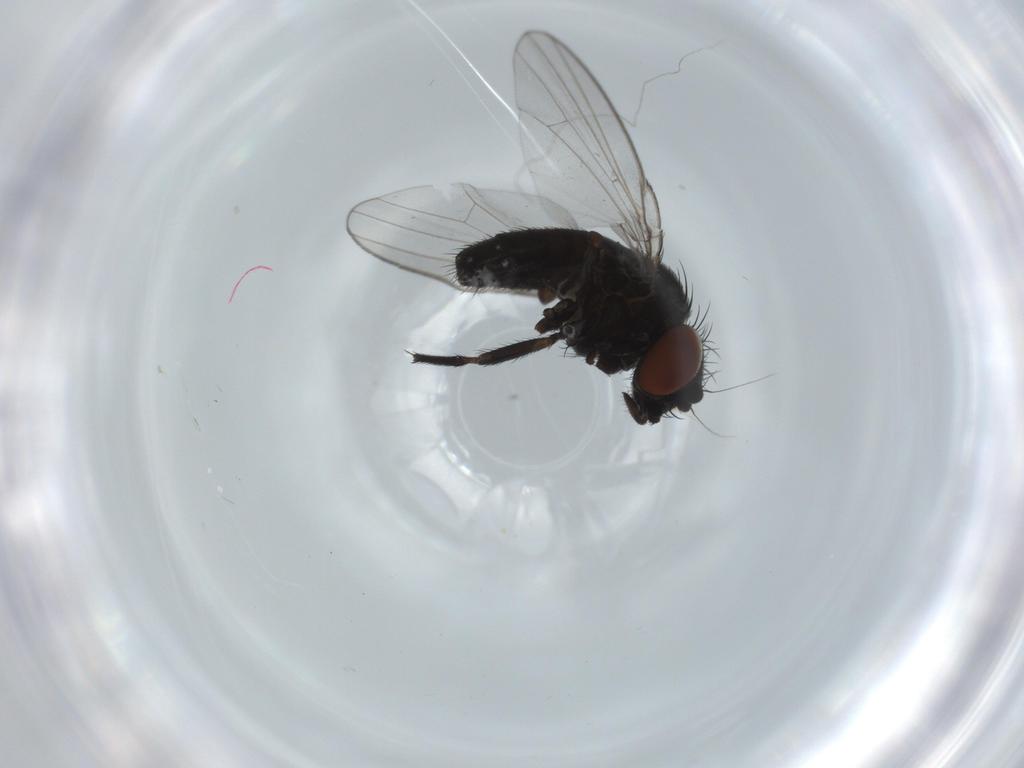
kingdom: Animalia
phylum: Arthropoda
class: Insecta
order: Diptera
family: Milichiidae
